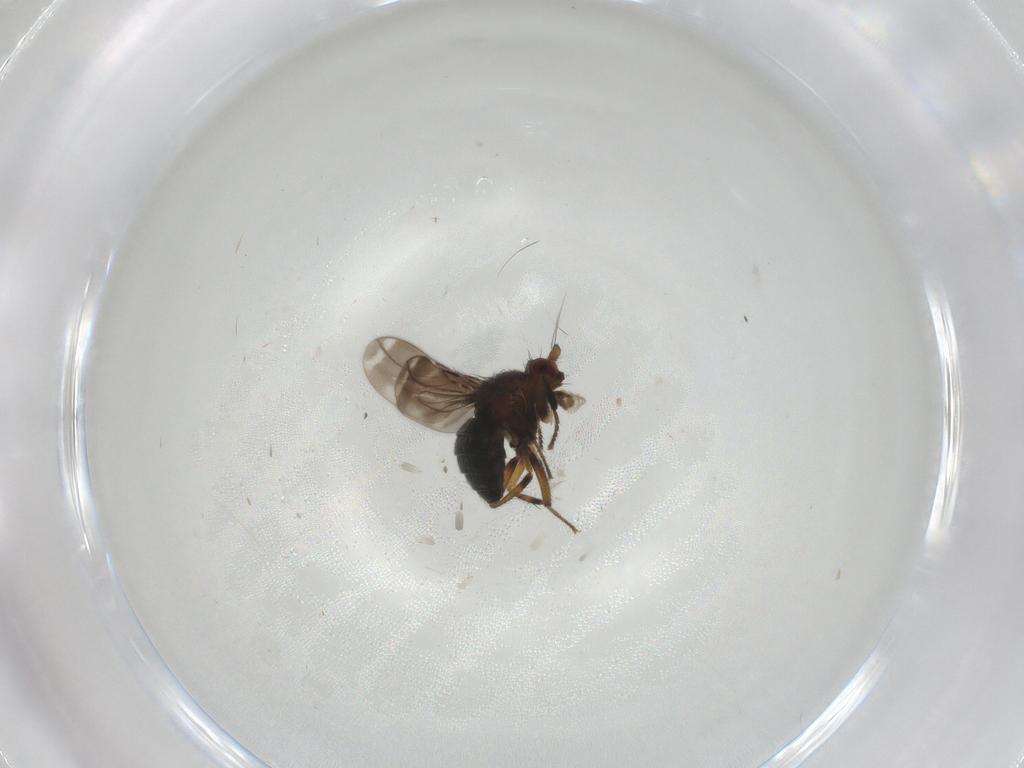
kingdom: Animalia
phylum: Arthropoda
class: Insecta
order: Diptera
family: Sphaeroceridae
